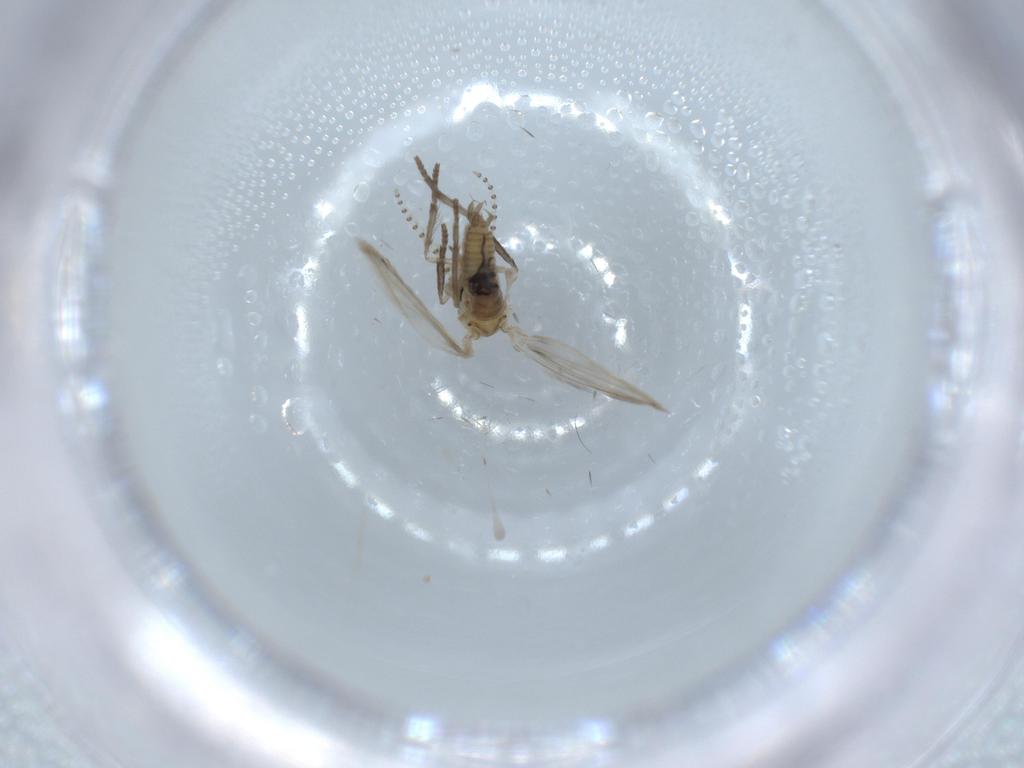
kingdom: Animalia
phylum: Arthropoda
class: Insecta
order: Diptera
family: Psychodidae
